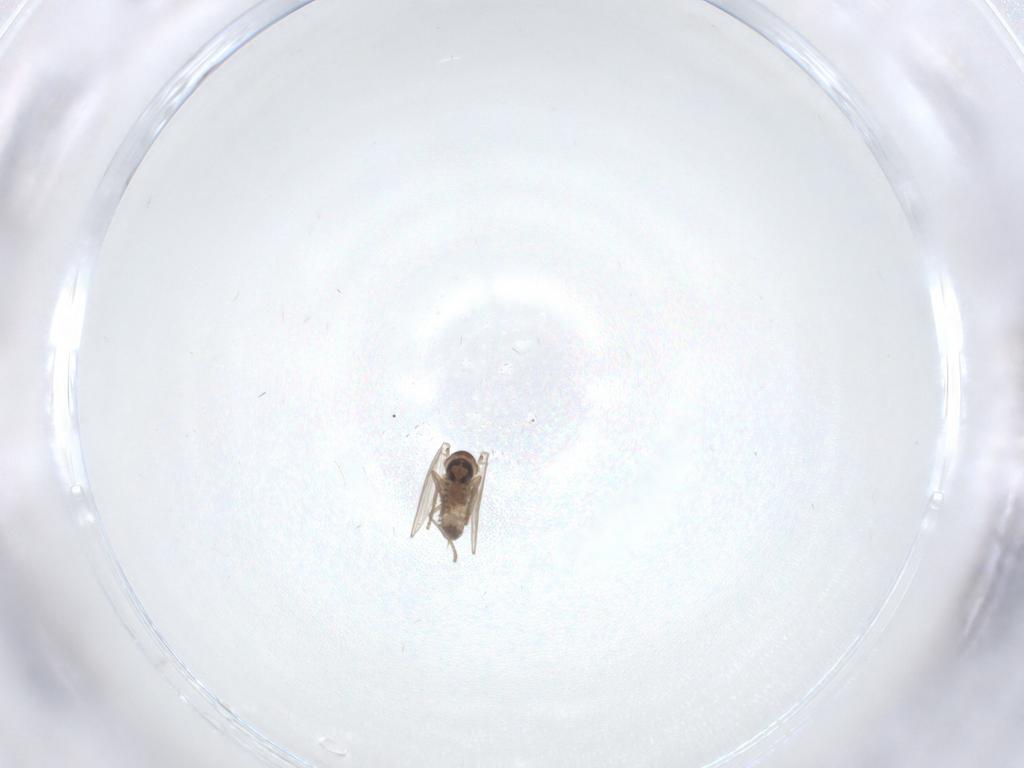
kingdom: Animalia
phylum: Arthropoda
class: Insecta
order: Diptera
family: Psychodidae
